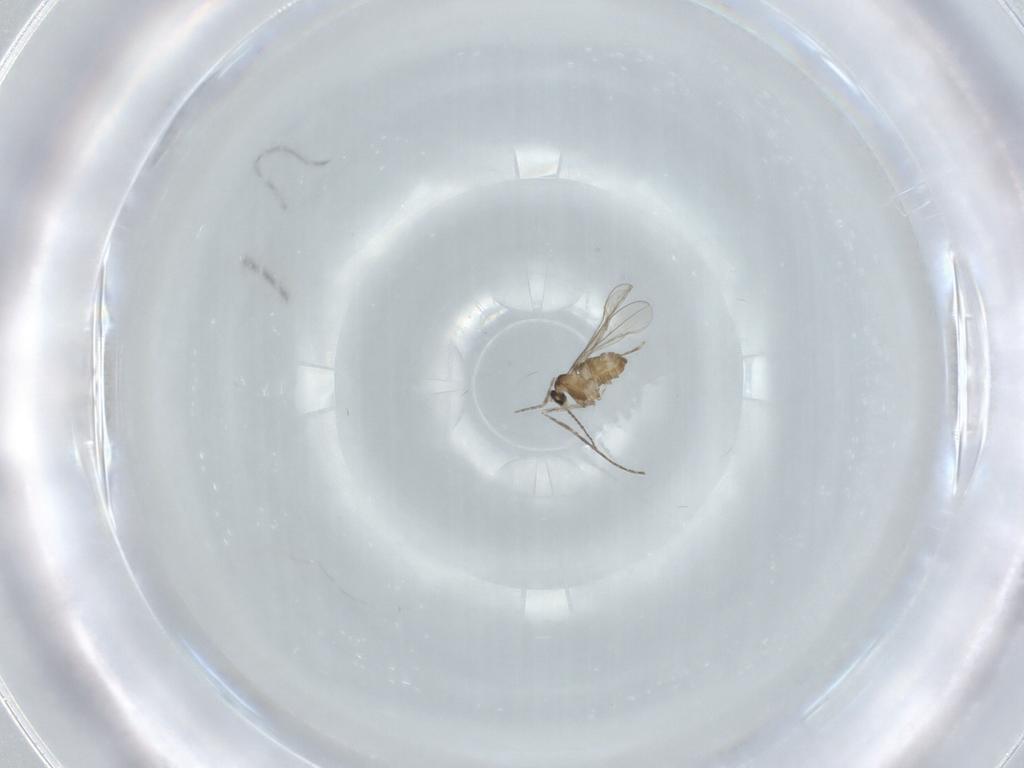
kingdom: Animalia
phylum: Arthropoda
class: Insecta
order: Diptera
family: Cecidomyiidae
